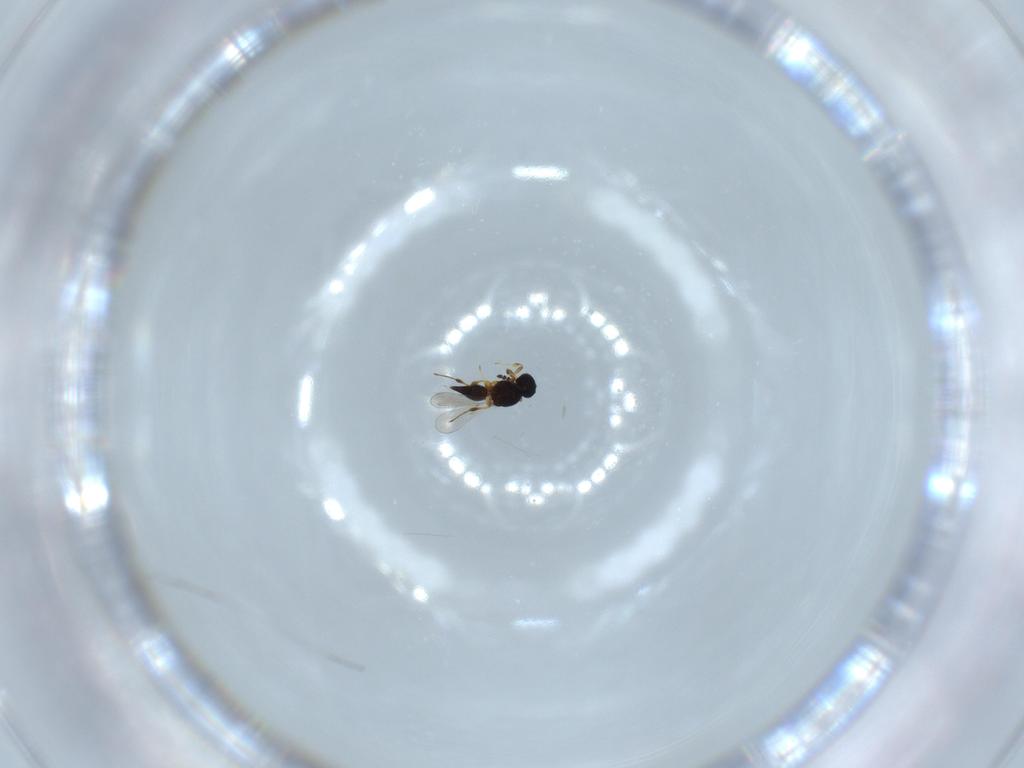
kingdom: Animalia
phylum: Arthropoda
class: Insecta
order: Hymenoptera
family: Platygastridae
